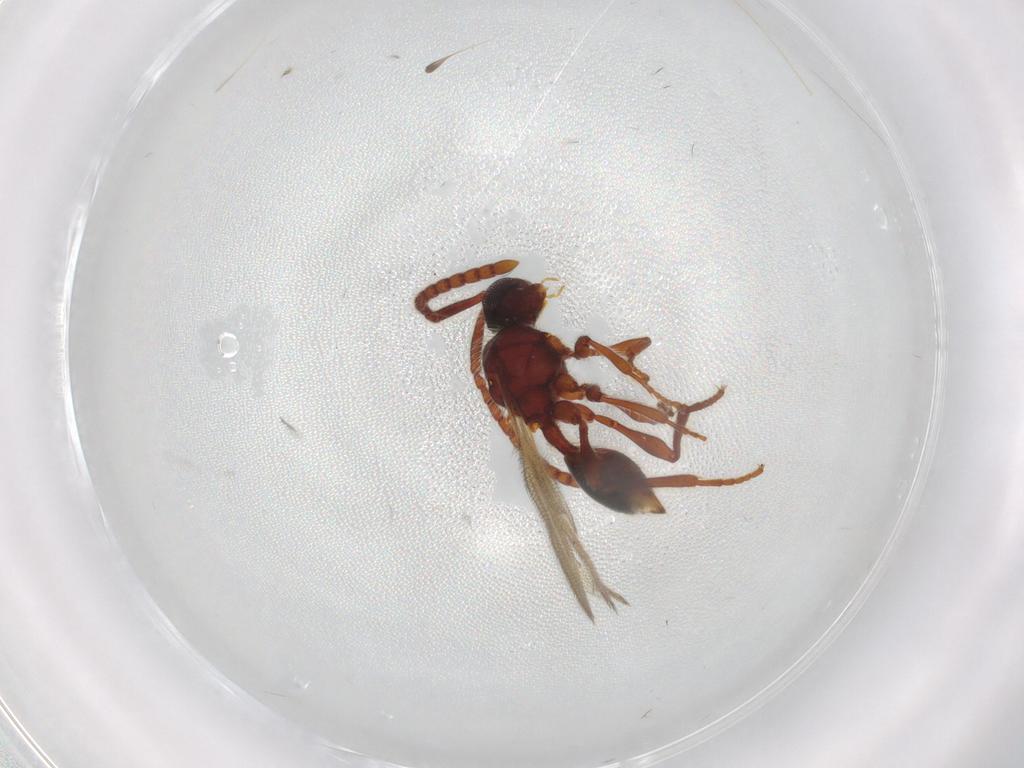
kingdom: Animalia
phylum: Arthropoda
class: Insecta
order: Hymenoptera
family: Diapriidae
